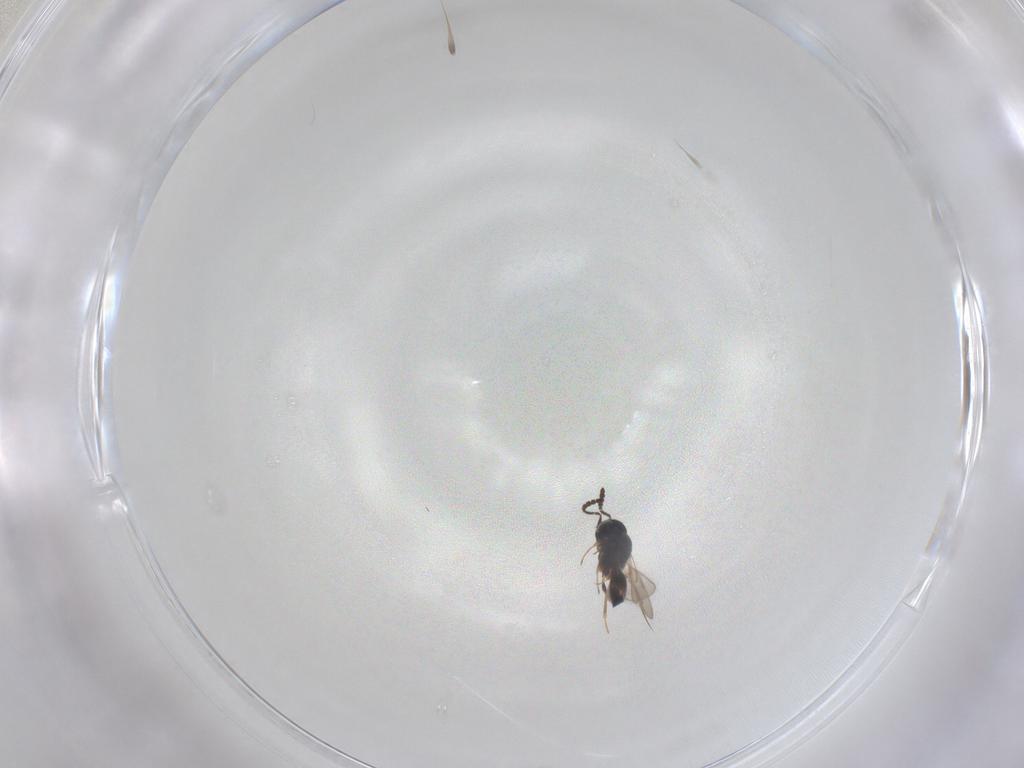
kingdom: Animalia
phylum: Arthropoda
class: Insecta
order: Hymenoptera
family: Scelionidae
